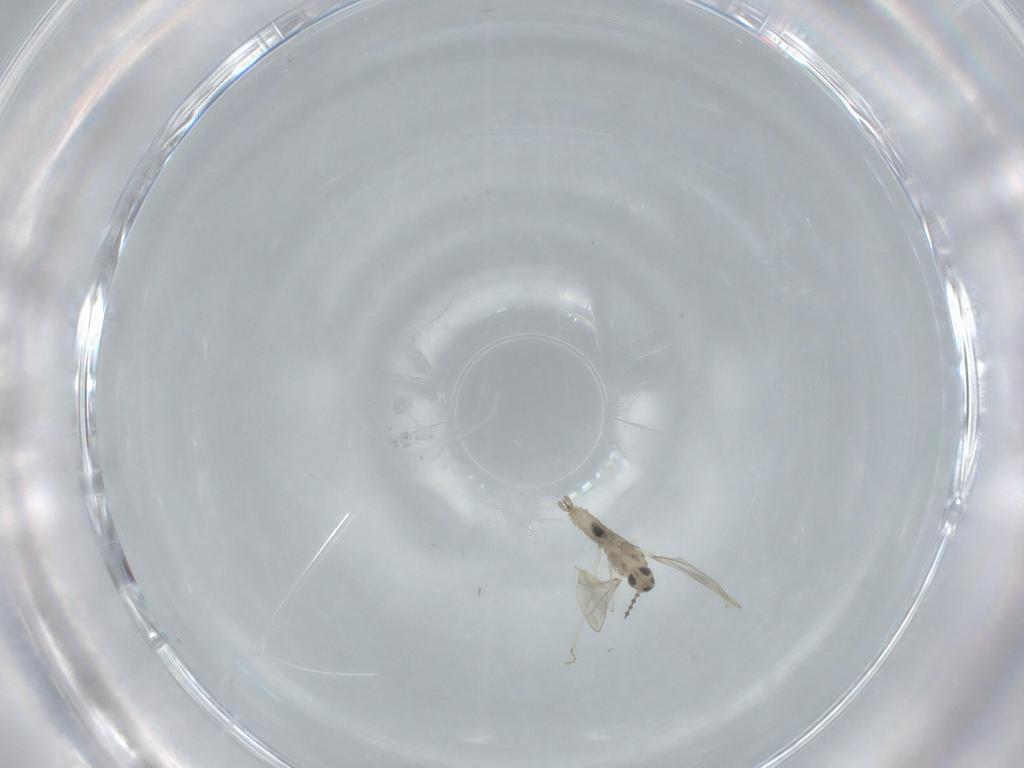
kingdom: Animalia
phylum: Arthropoda
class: Insecta
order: Diptera
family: Cecidomyiidae
